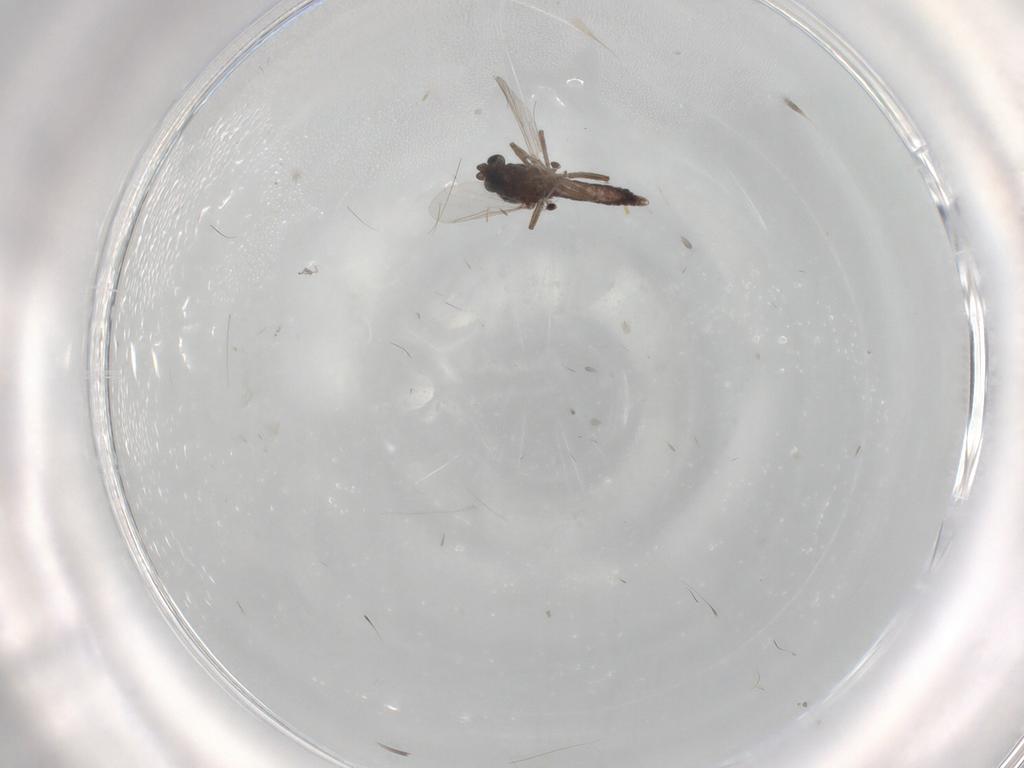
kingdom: Animalia
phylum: Arthropoda
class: Insecta
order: Diptera
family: Ceratopogonidae
